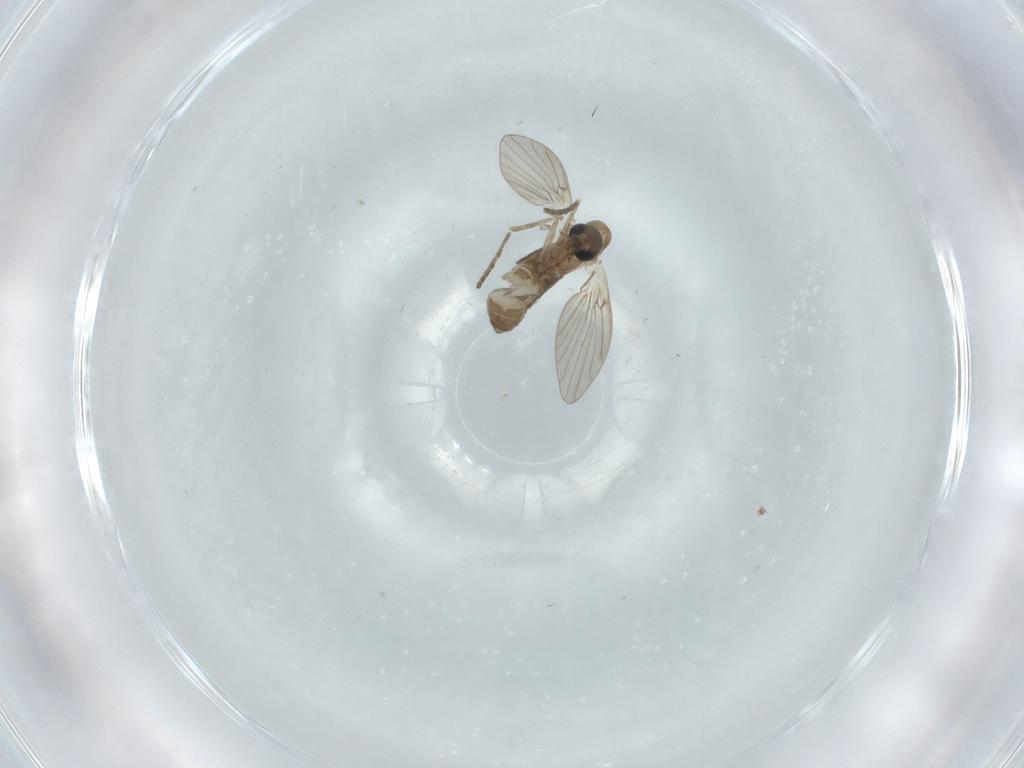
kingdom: Animalia
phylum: Arthropoda
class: Insecta
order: Diptera
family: Psychodidae
